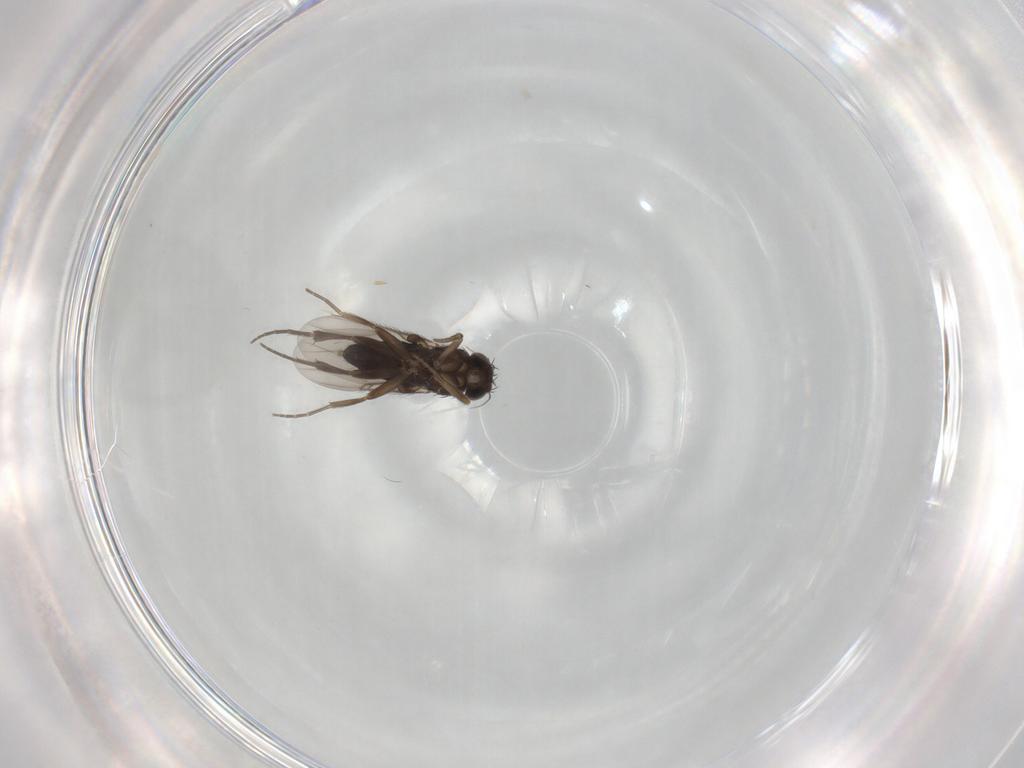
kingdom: Animalia
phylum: Arthropoda
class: Insecta
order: Diptera
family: Phoridae
